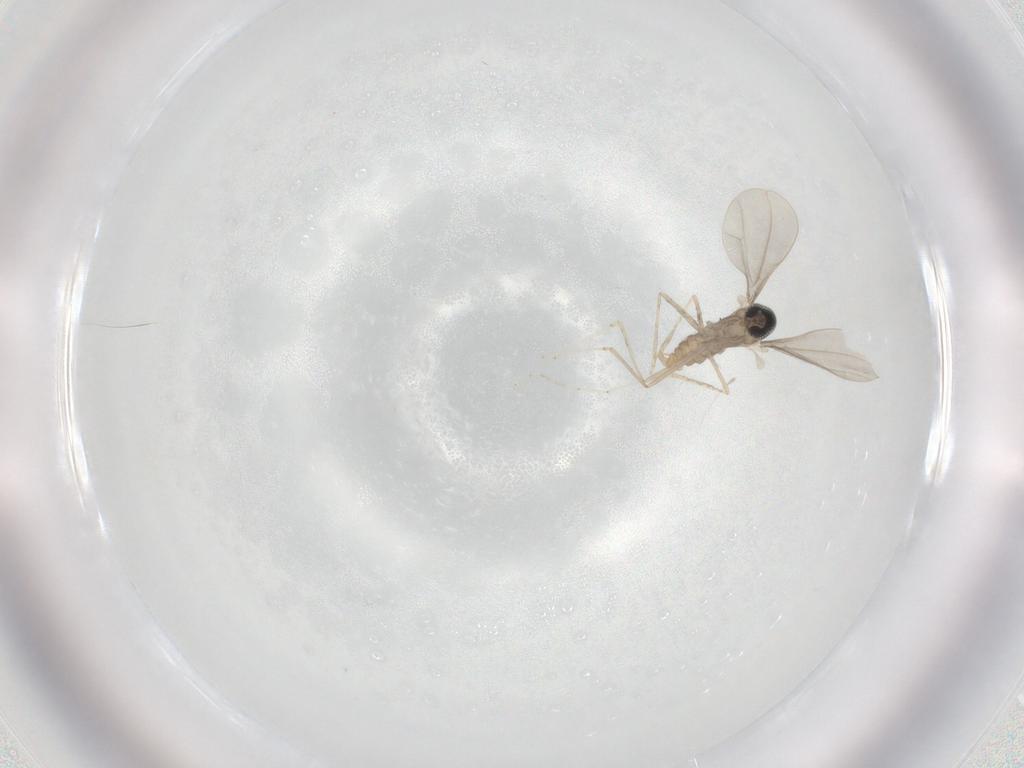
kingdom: Animalia
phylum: Arthropoda
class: Insecta
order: Diptera
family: Cecidomyiidae
